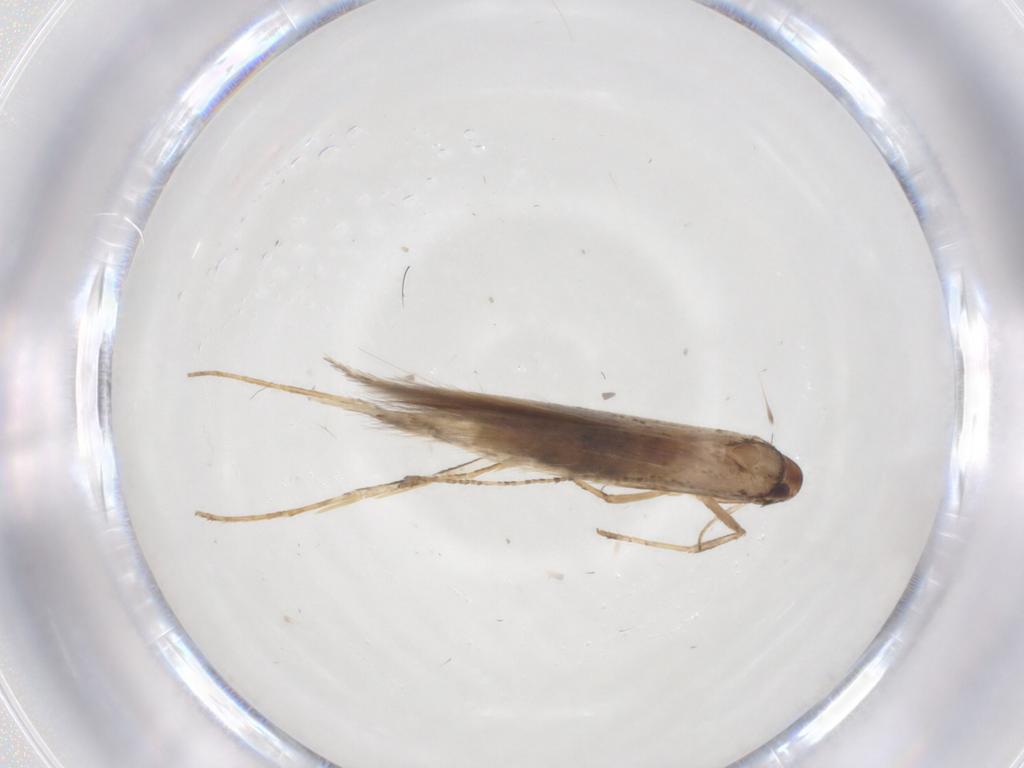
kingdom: Animalia
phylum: Arthropoda
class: Insecta
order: Lepidoptera
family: Cosmopterigidae
